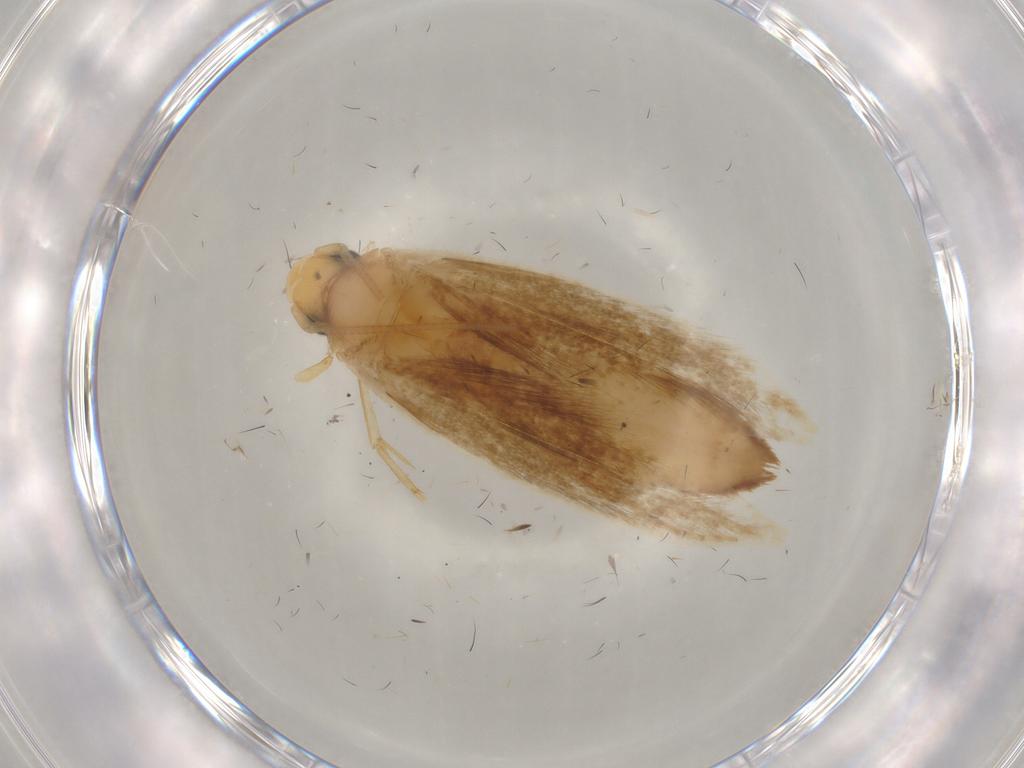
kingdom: Animalia
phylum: Arthropoda
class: Insecta
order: Lepidoptera
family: Tineidae
